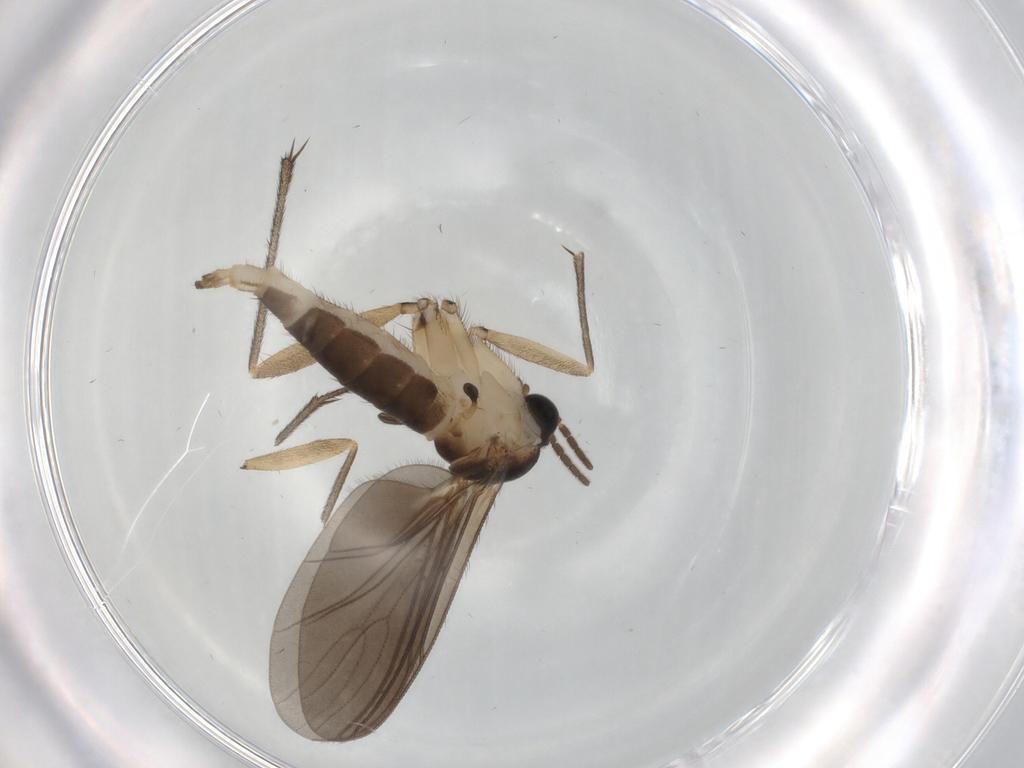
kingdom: Animalia
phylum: Arthropoda
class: Insecta
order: Diptera
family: Sciaridae
